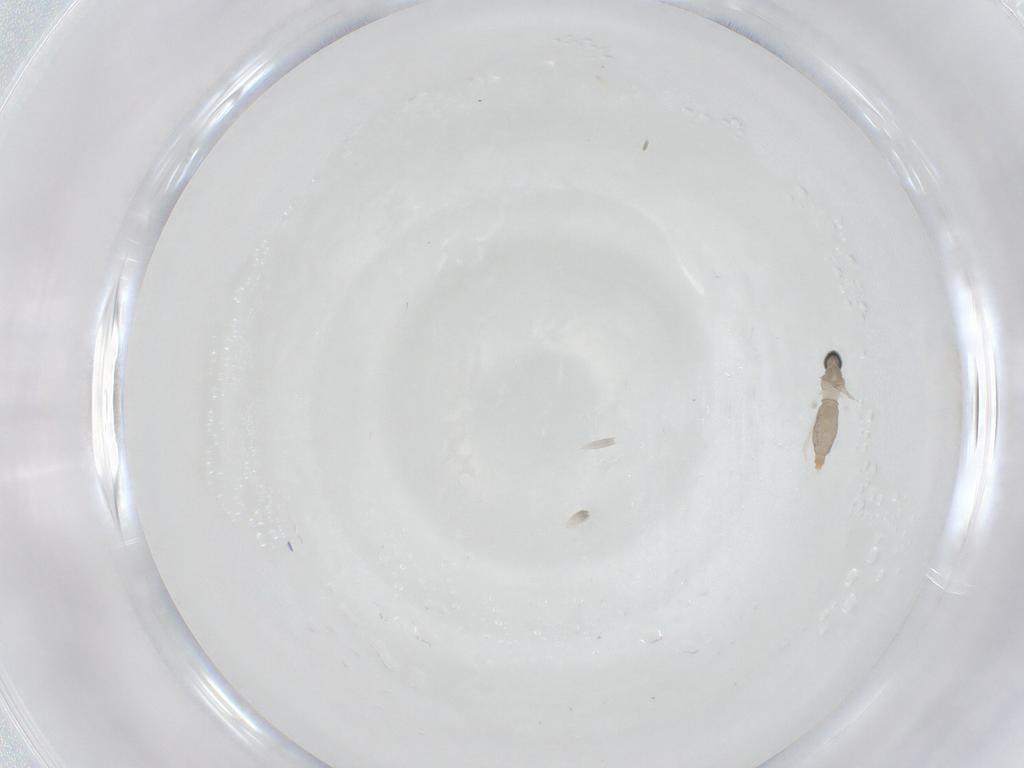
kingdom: Animalia
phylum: Arthropoda
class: Insecta
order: Diptera
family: Cecidomyiidae
